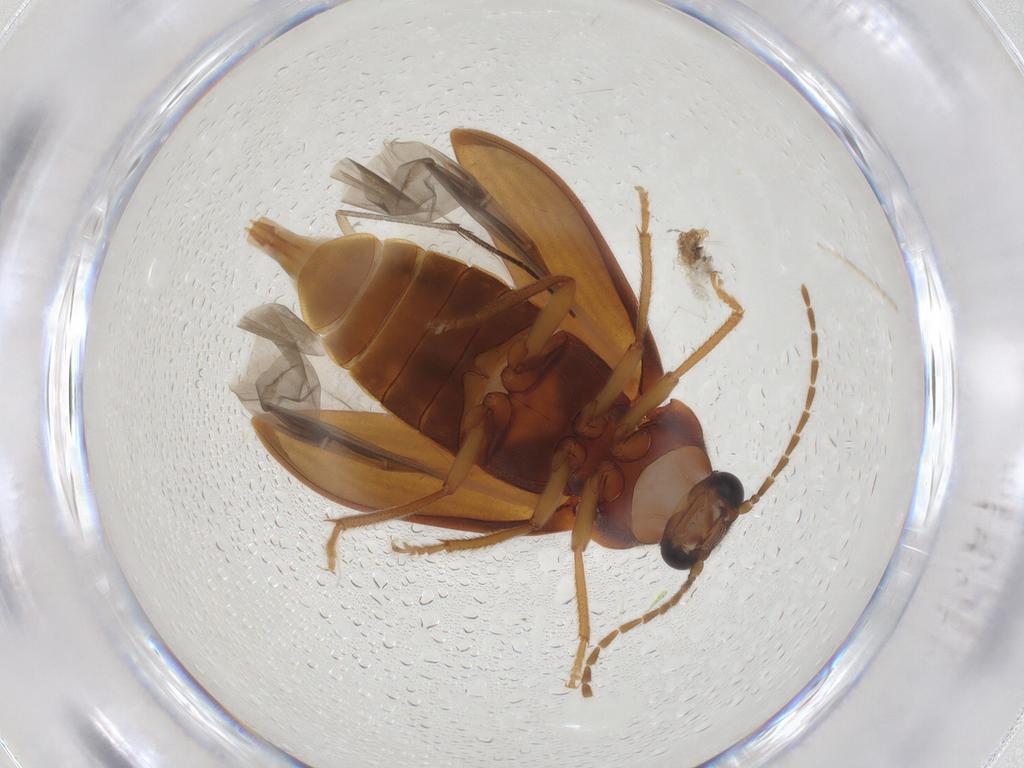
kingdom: Animalia
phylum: Arthropoda
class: Insecta
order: Coleoptera
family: Ptilodactylidae
